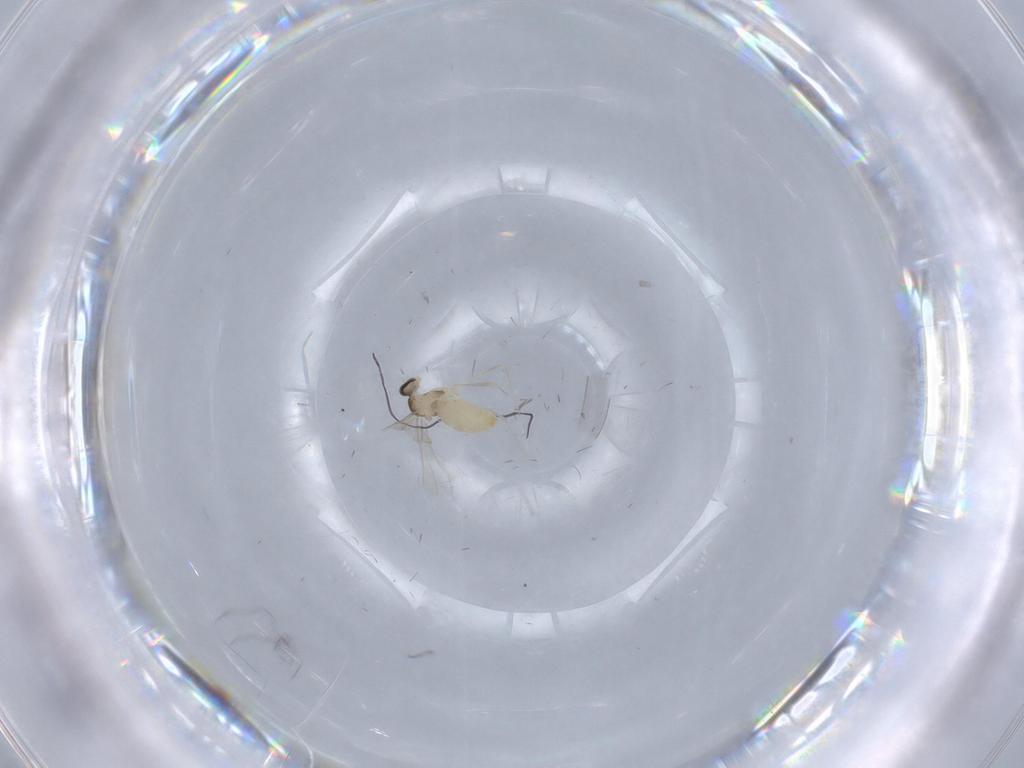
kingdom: Animalia
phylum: Arthropoda
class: Insecta
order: Diptera
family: Cecidomyiidae
